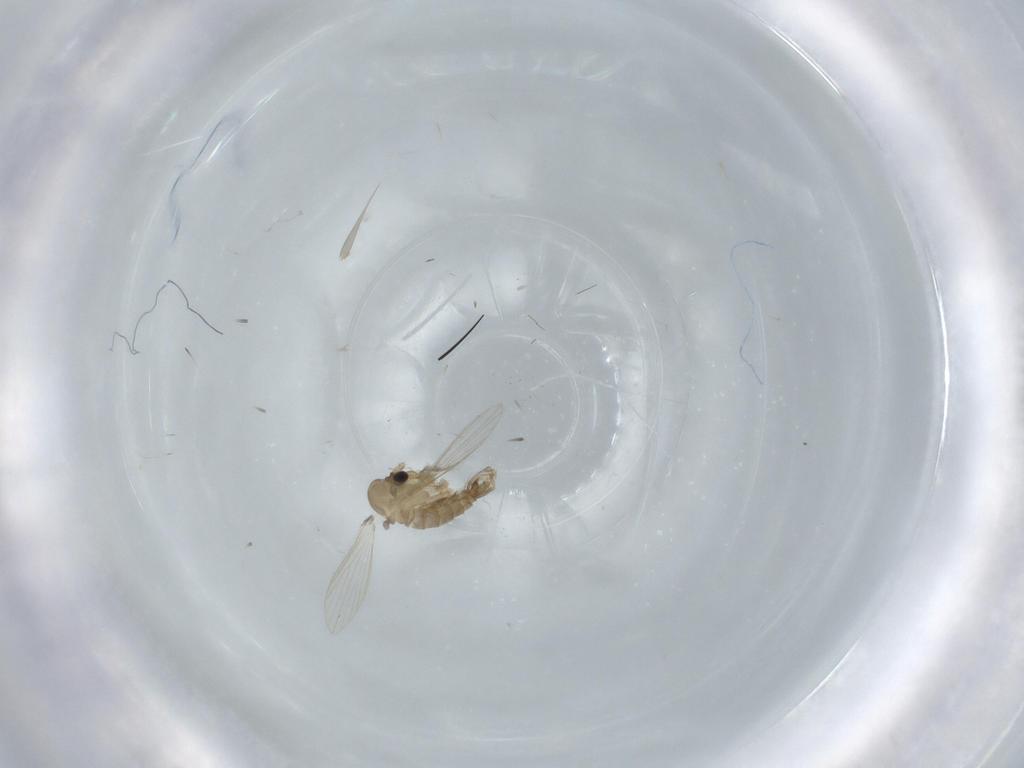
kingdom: Animalia
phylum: Arthropoda
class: Insecta
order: Diptera
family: Psychodidae
